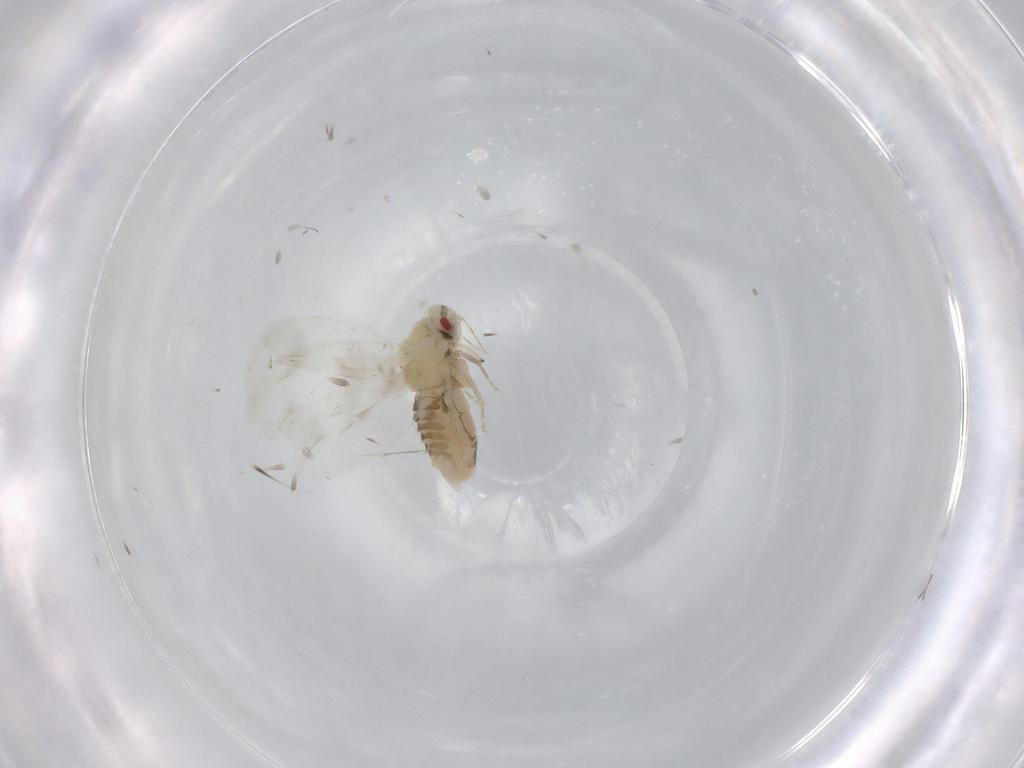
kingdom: Animalia
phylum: Arthropoda
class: Insecta
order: Hemiptera
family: Aleyrodidae
